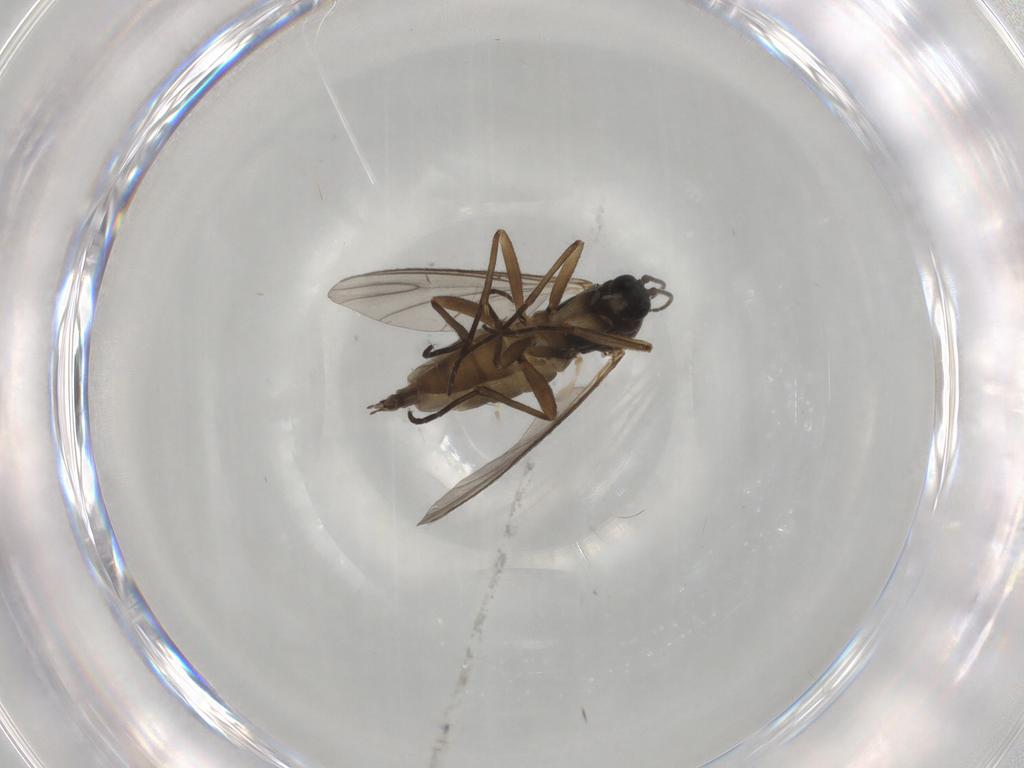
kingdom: Animalia
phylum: Arthropoda
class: Insecta
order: Diptera
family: Sciaridae
